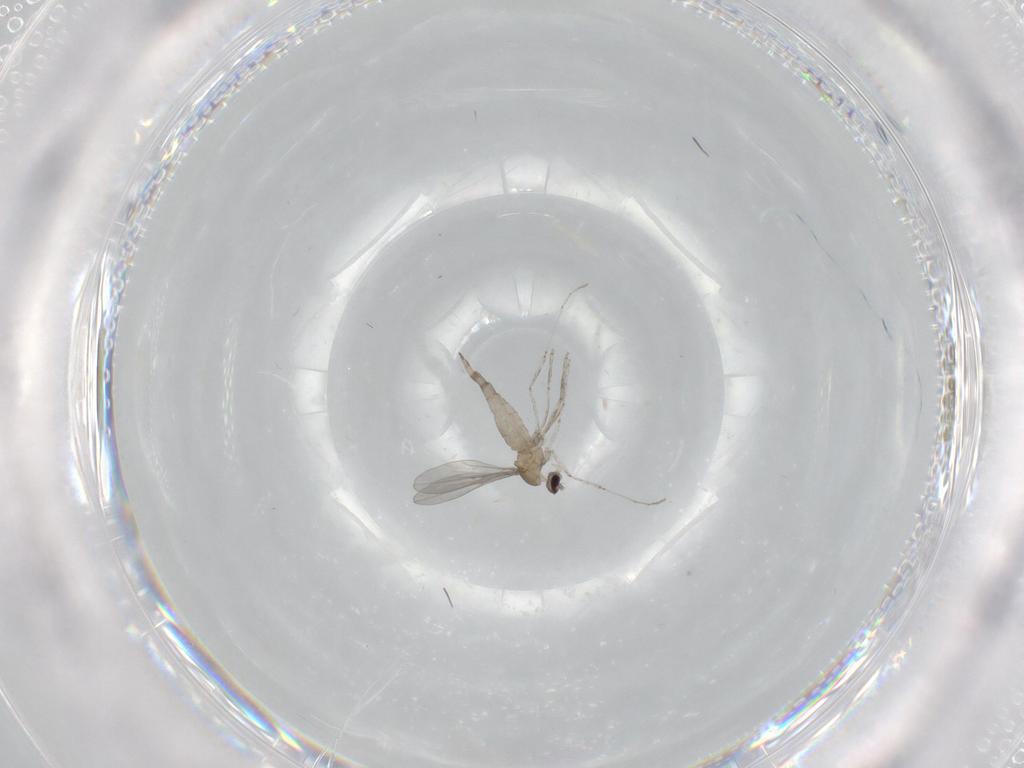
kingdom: Animalia
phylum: Arthropoda
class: Insecta
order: Diptera
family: Cecidomyiidae
